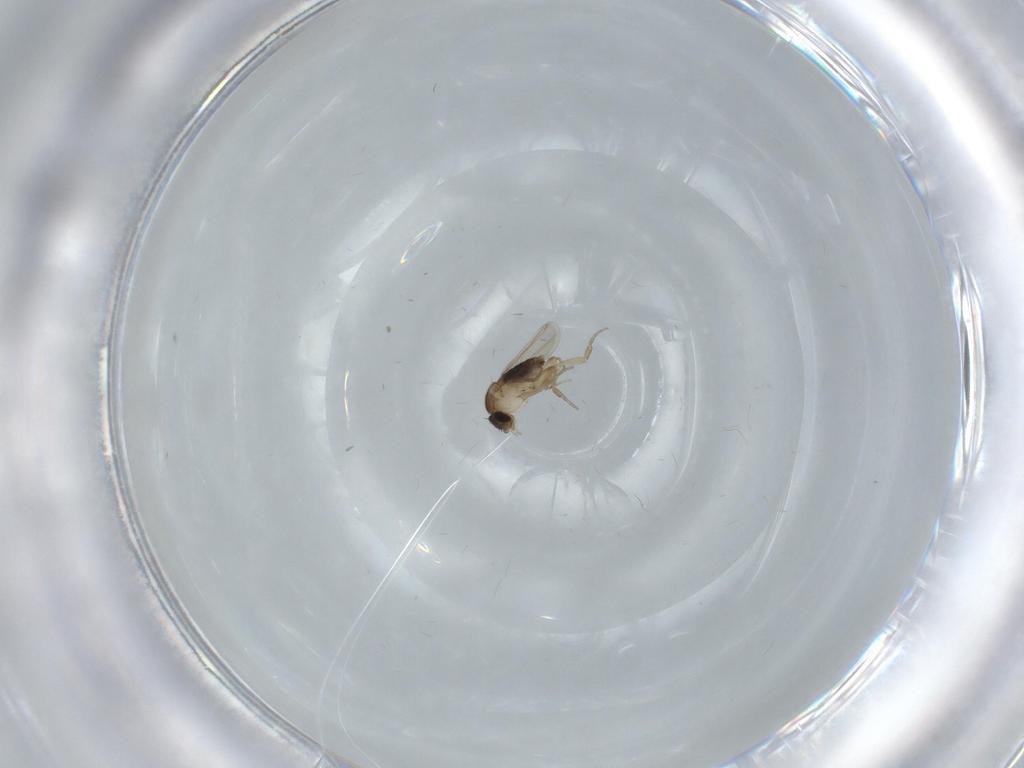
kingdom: Animalia
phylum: Arthropoda
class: Insecta
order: Diptera
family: Phoridae
